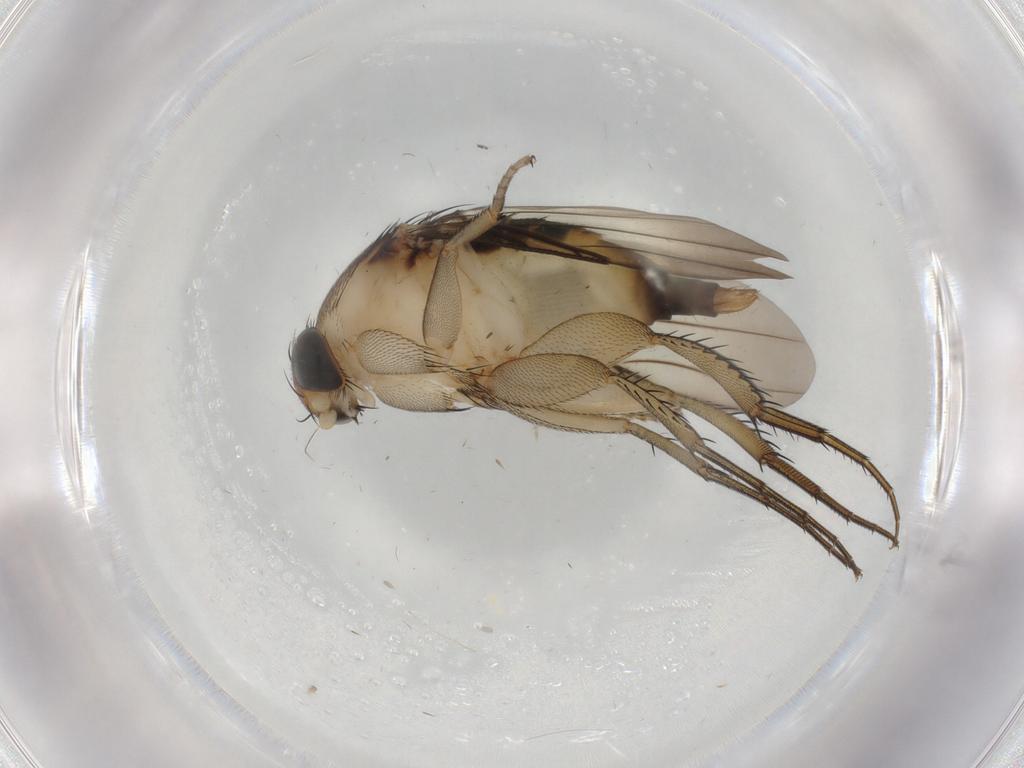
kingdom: Animalia
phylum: Arthropoda
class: Insecta
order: Diptera
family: Phoridae
